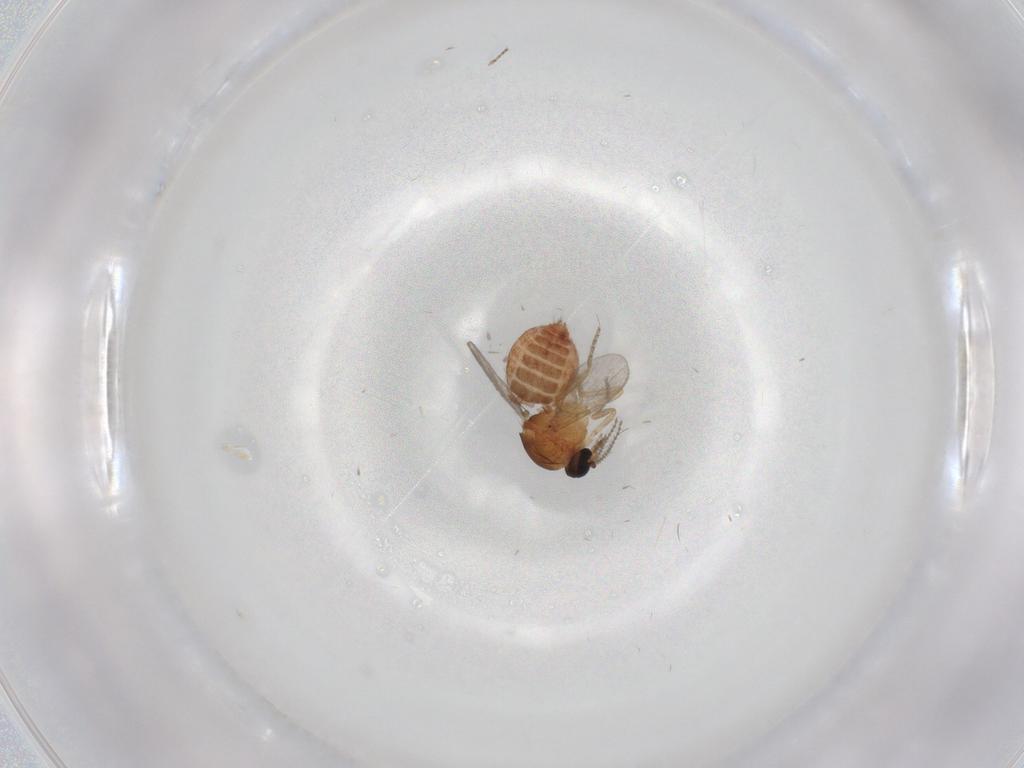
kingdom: Animalia
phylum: Arthropoda
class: Insecta
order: Diptera
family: Ceratopogonidae
